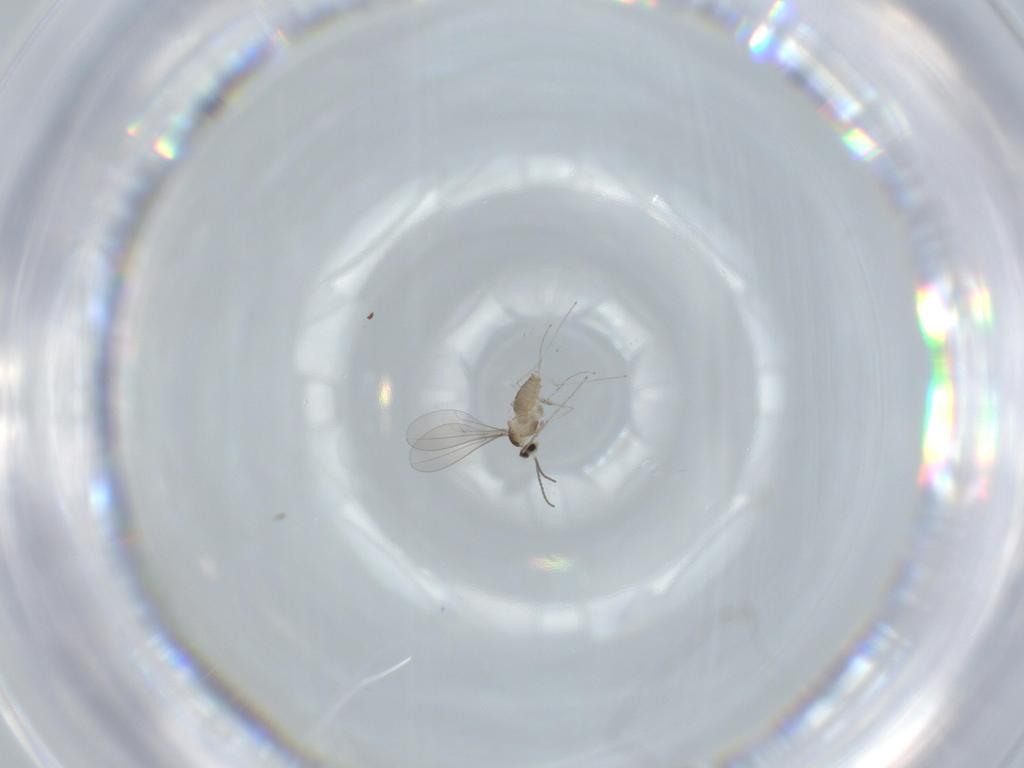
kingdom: Animalia
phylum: Arthropoda
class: Insecta
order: Diptera
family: Cecidomyiidae
